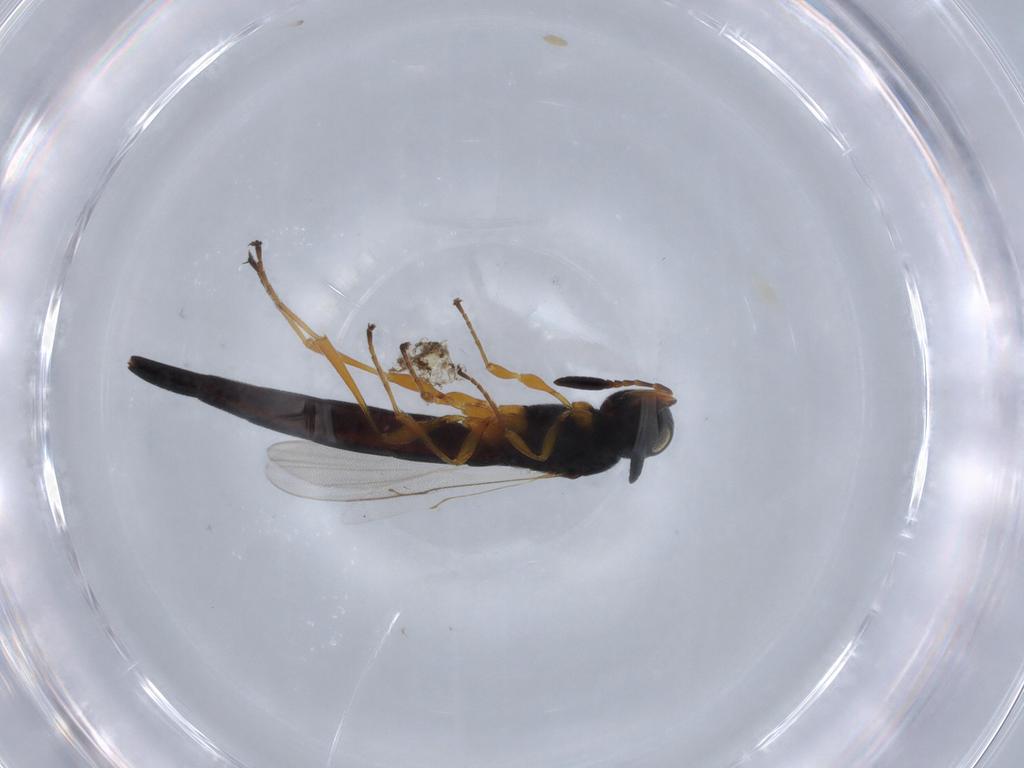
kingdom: Animalia
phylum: Arthropoda
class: Insecta
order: Hymenoptera
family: Scelionidae
